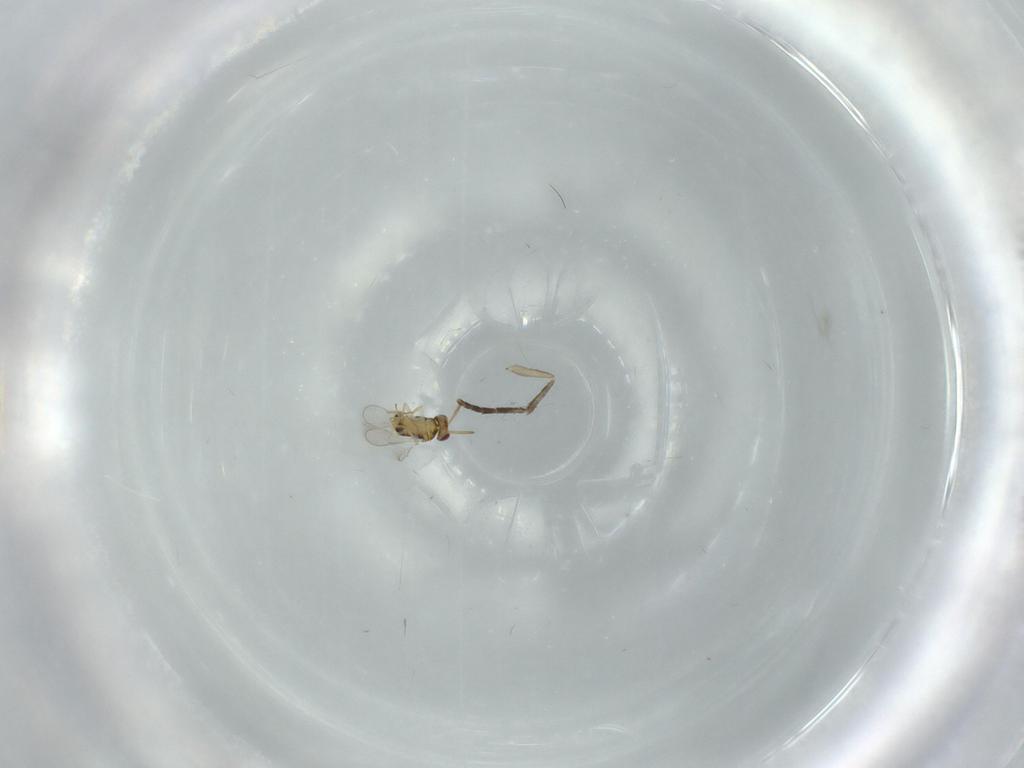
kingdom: Animalia
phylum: Arthropoda
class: Insecta
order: Hymenoptera
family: Aphelinidae
